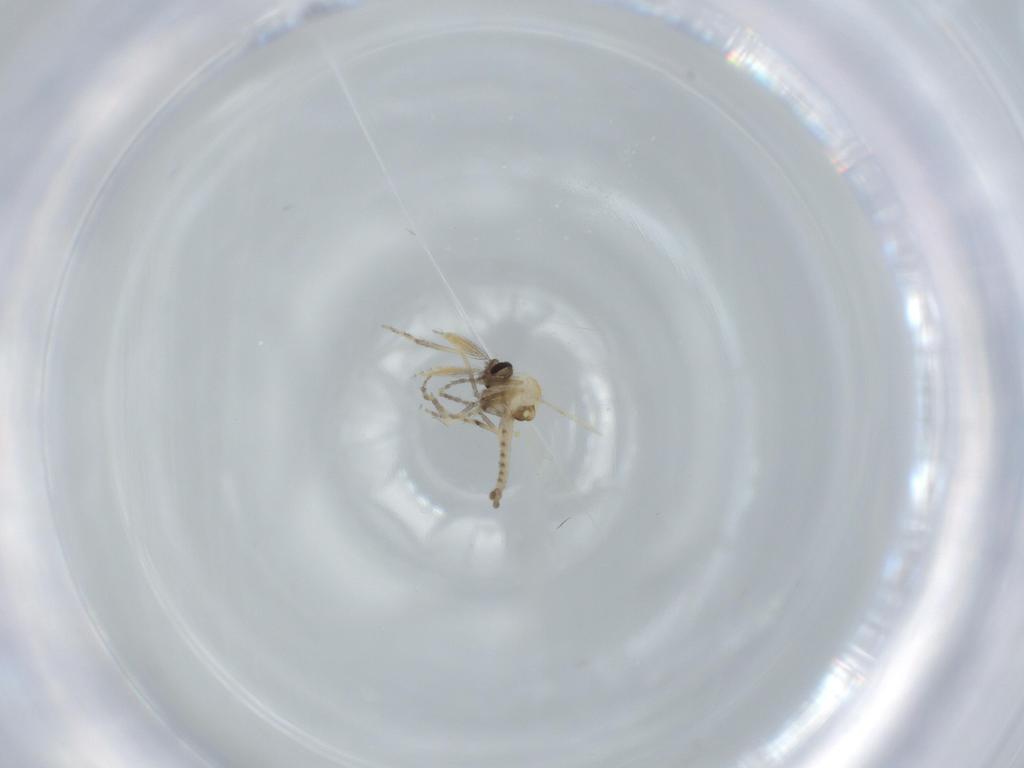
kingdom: Animalia
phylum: Arthropoda
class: Insecta
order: Diptera
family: Ceratopogonidae
